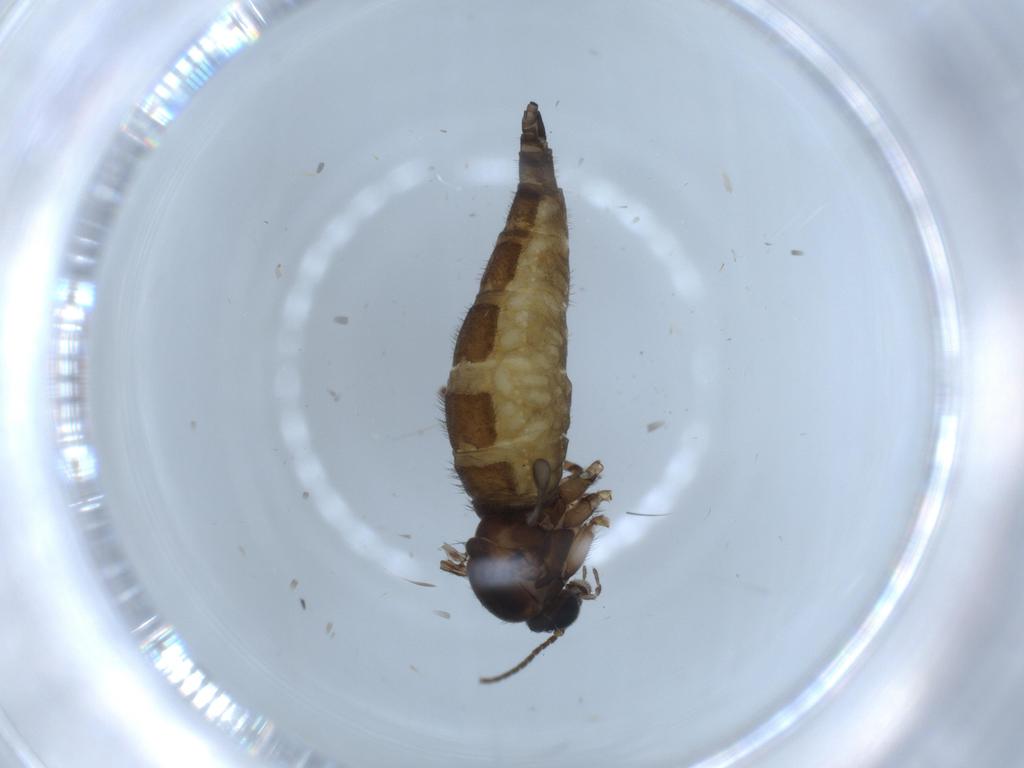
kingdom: Animalia
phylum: Arthropoda
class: Insecta
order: Diptera
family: Sciaridae
